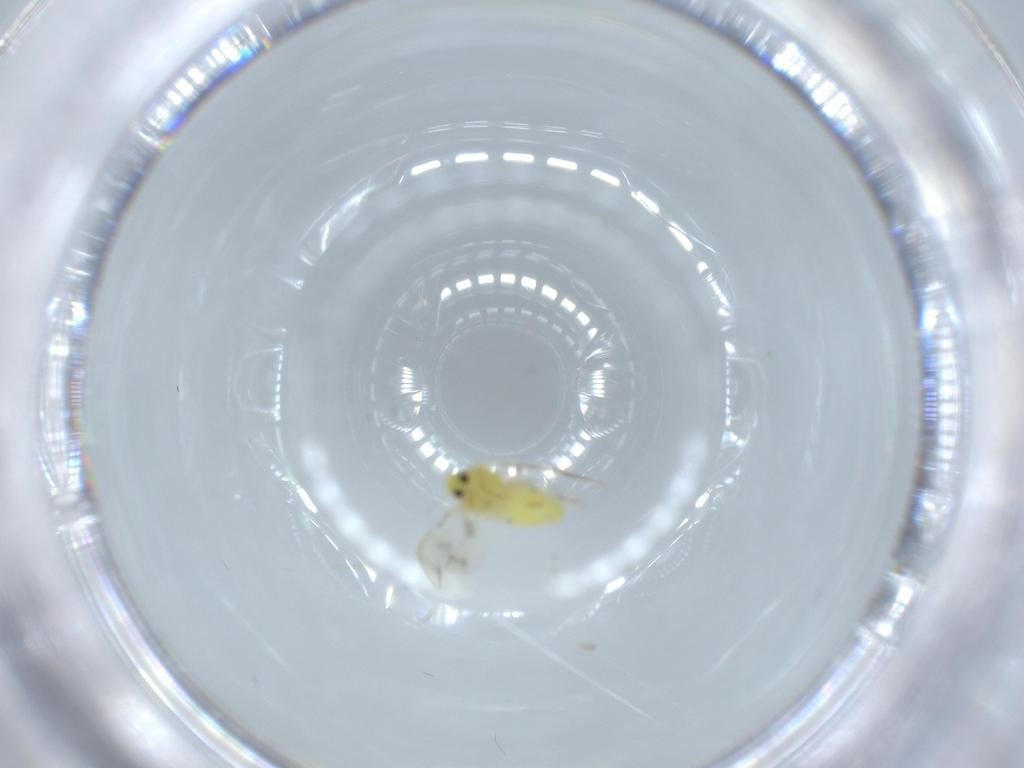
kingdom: Animalia
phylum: Arthropoda
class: Insecta
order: Hemiptera
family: Aleyrodidae
